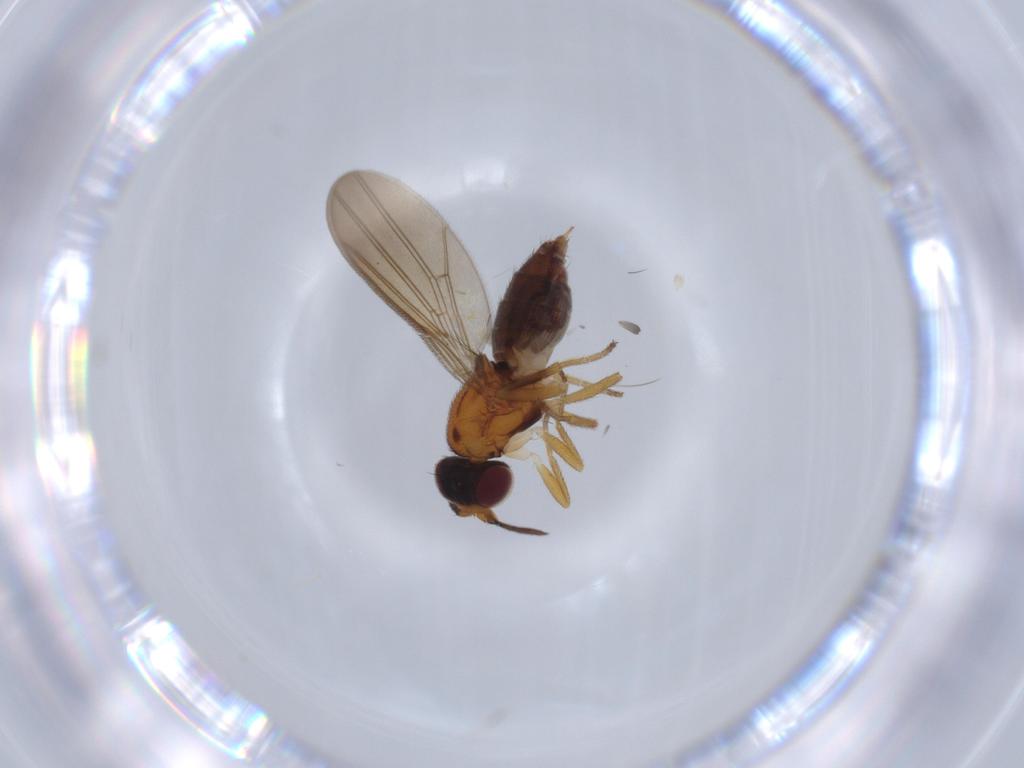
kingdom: Animalia
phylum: Arthropoda
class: Insecta
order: Diptera
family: Chloropidae
